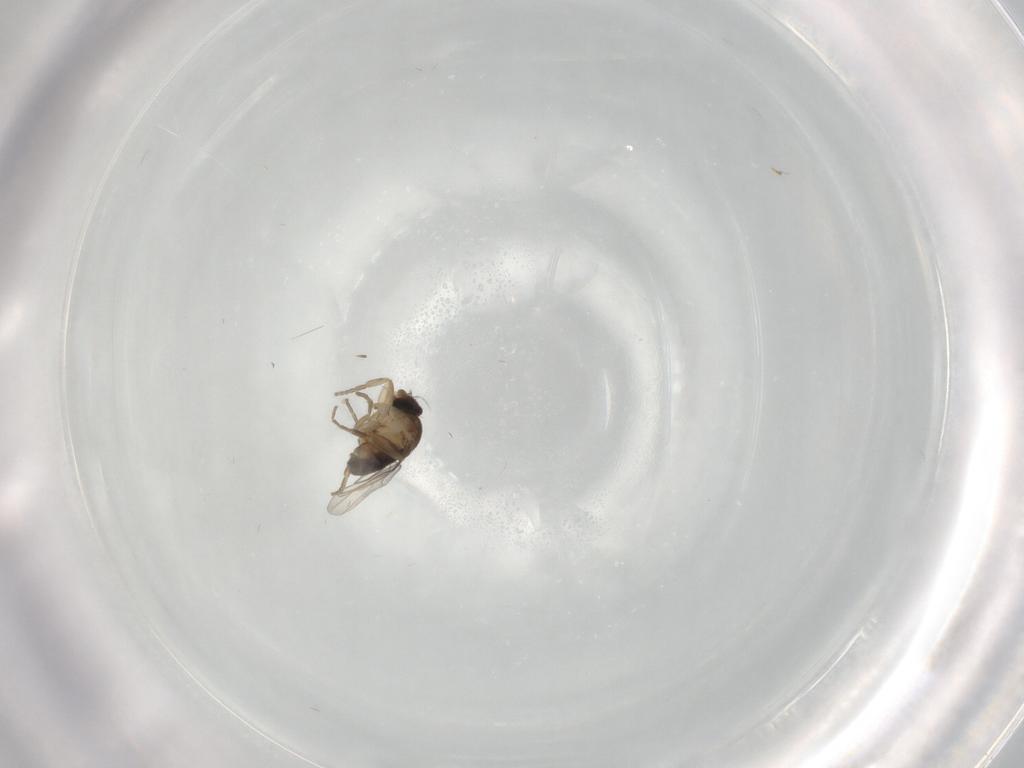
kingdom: Animalia
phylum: Arthropoda
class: Insecta
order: Diptera
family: Phoridae
